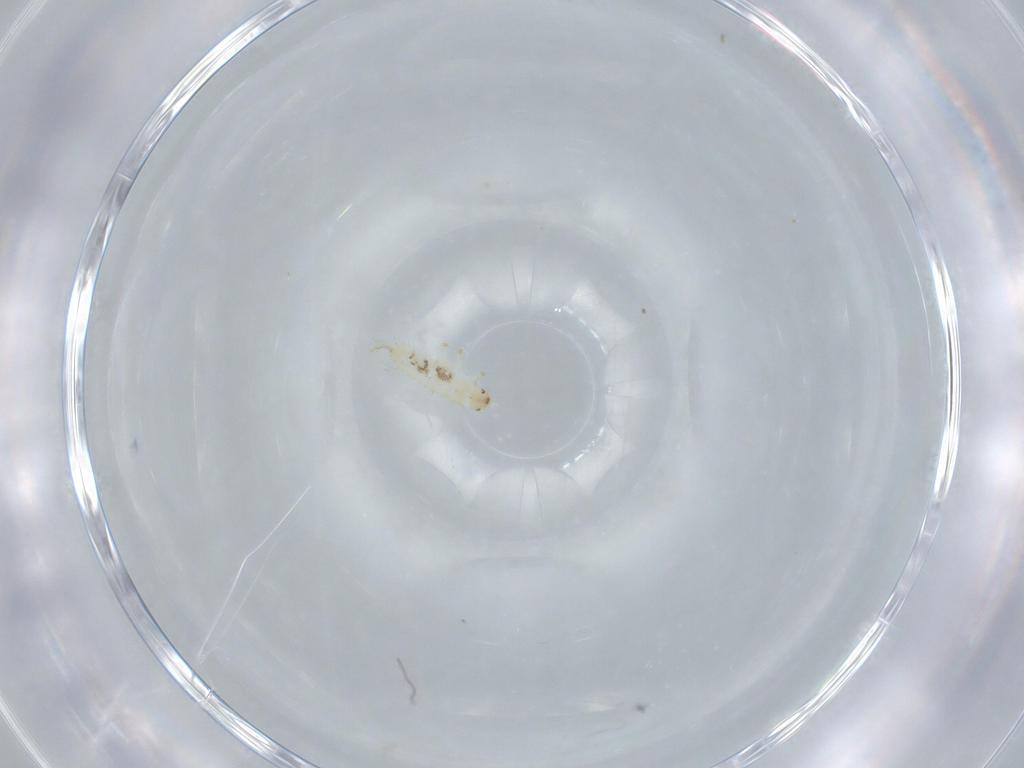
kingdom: Animalia
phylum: Arthropoda
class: Insecta
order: Coleoptera
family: Dermestidae
